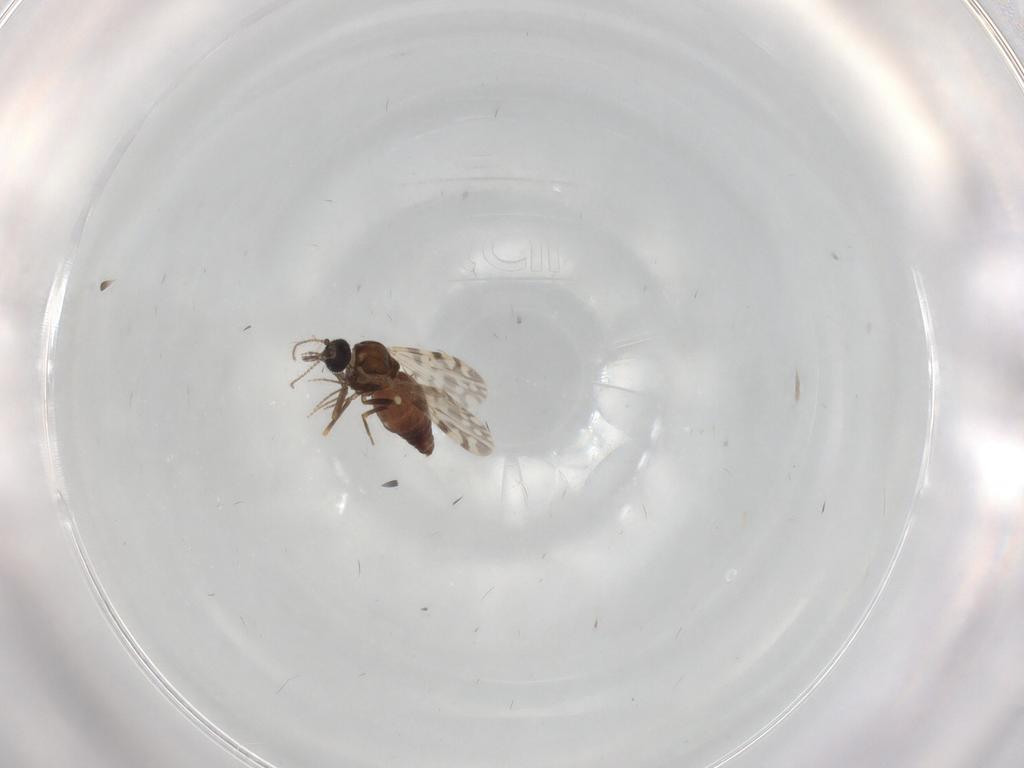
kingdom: Animalia
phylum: Arthropoda
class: Insecta
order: Diptera
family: Ceratopogonidae
